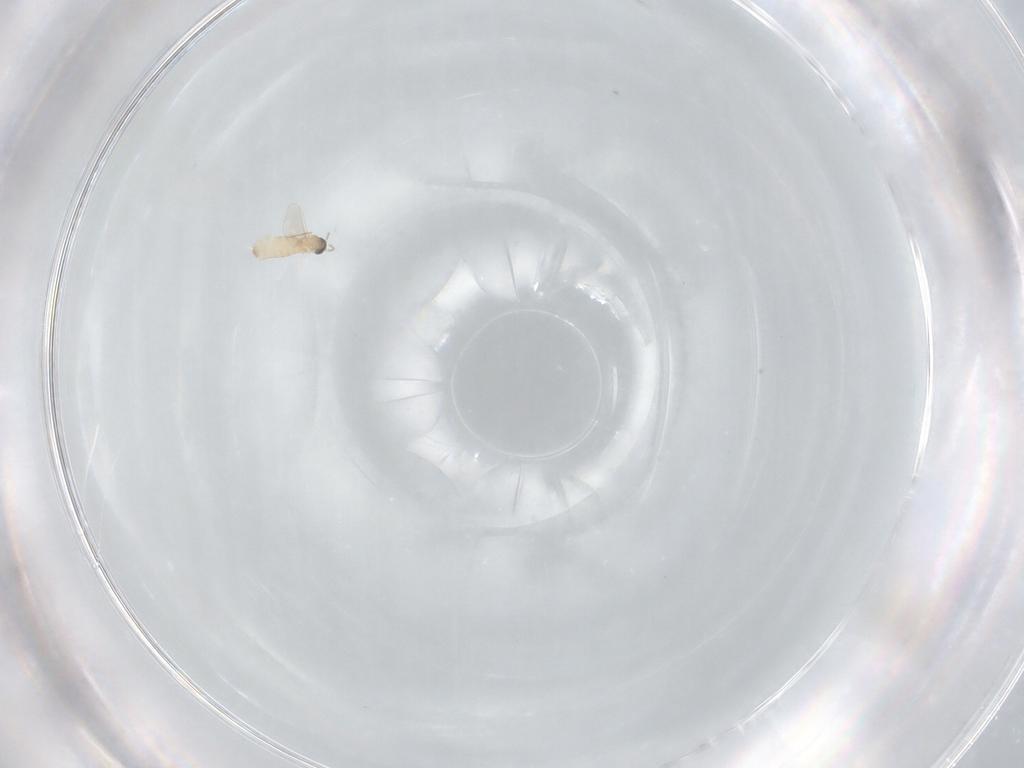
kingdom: Animalia
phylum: Arthropoda
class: Insecta
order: Diptera
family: Cecidomyiidae
